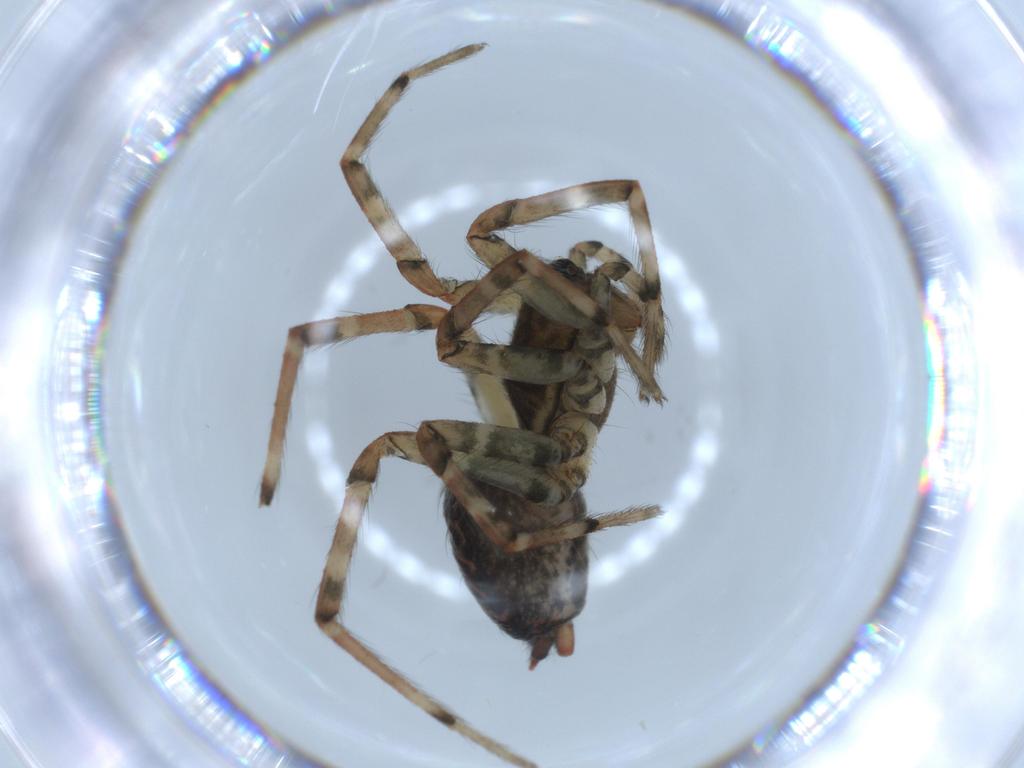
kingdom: Animalia
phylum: Arthropoda
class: Arachnida
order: Araneae
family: Agelenidae
